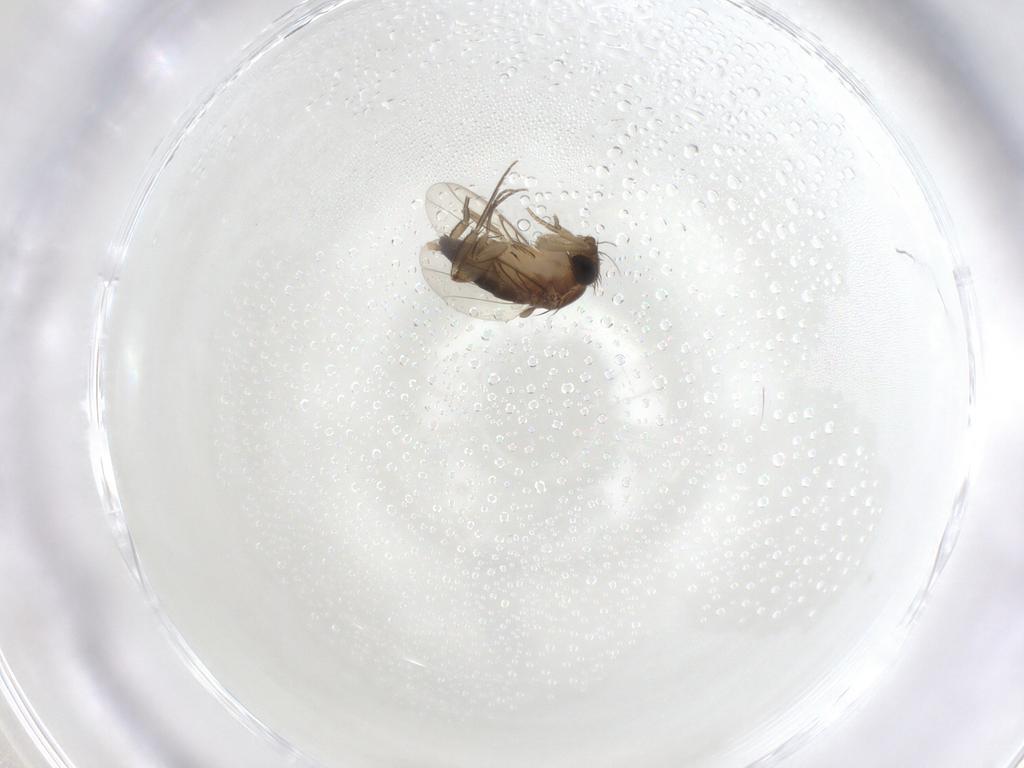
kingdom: Animalia
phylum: Arthropoda
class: Insecta
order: Diptera
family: Phoridae
